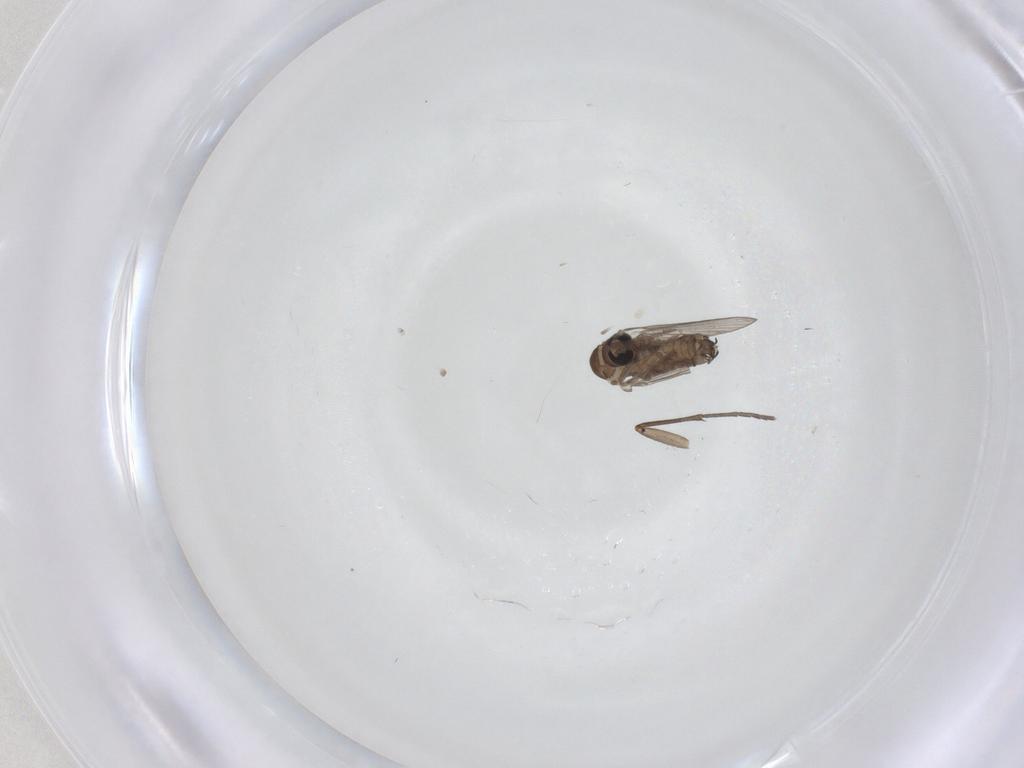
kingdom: Animalia
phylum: Arthropoda
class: Insecta
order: Diptera
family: Sciaridae
